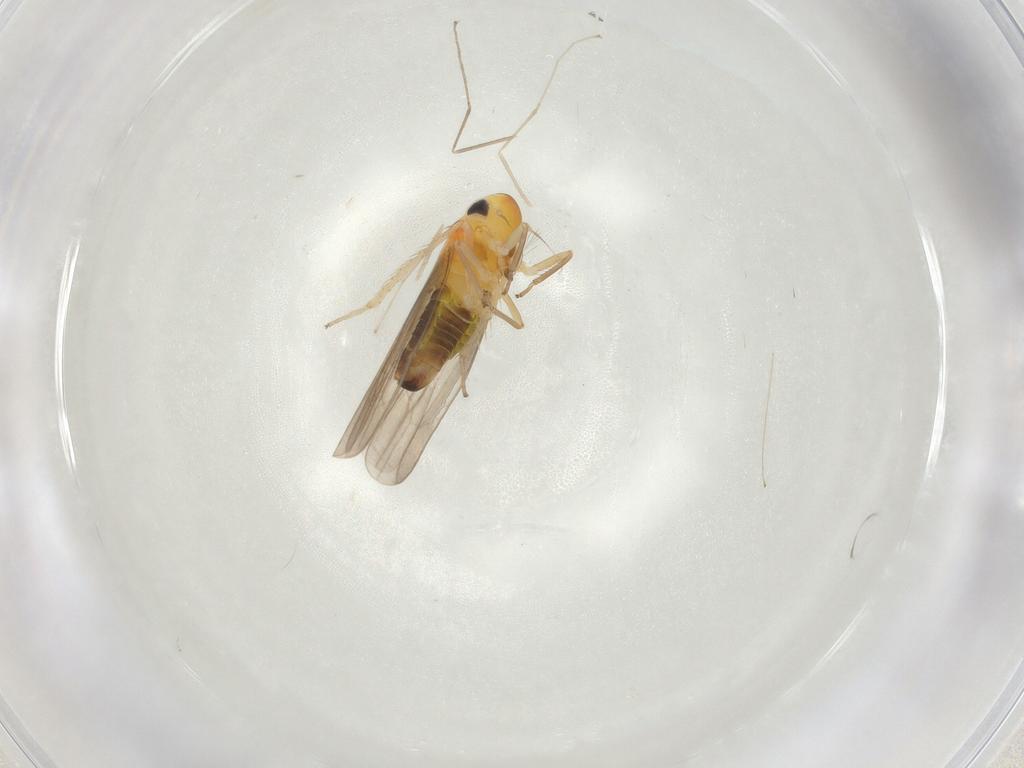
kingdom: Animalia
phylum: Arthropoda
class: Insecta
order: Hemiptera
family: Cicadellidae
